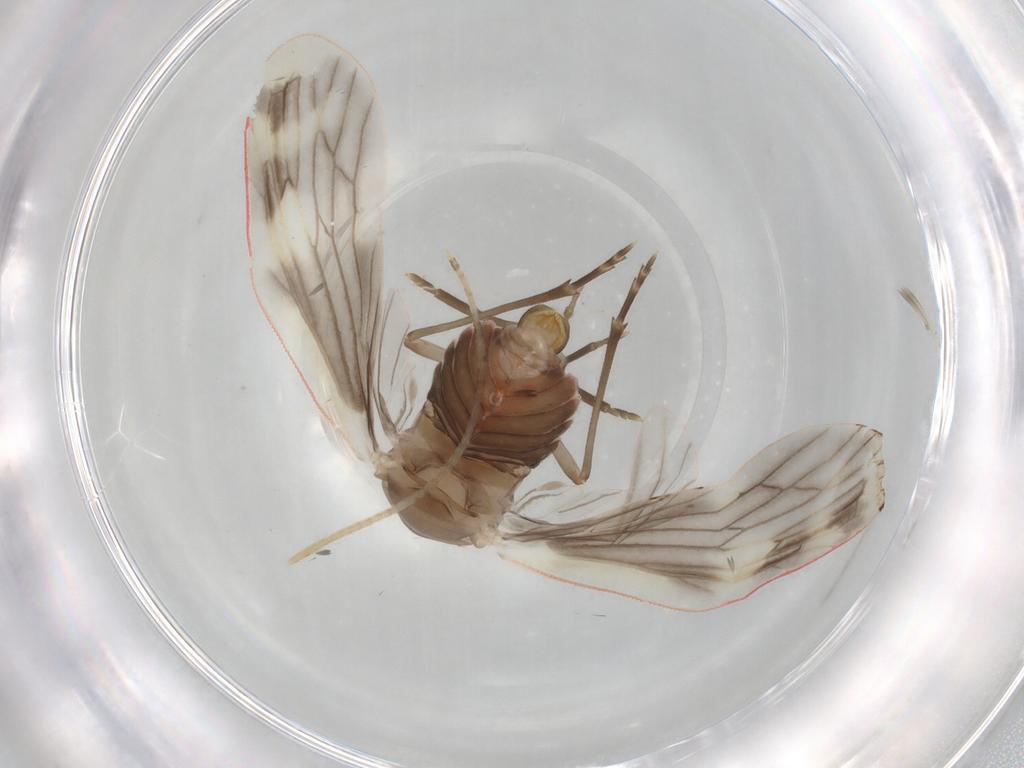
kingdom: Animalia
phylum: Arthropoda
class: Insecta
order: Hemiptera
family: Derbidae
